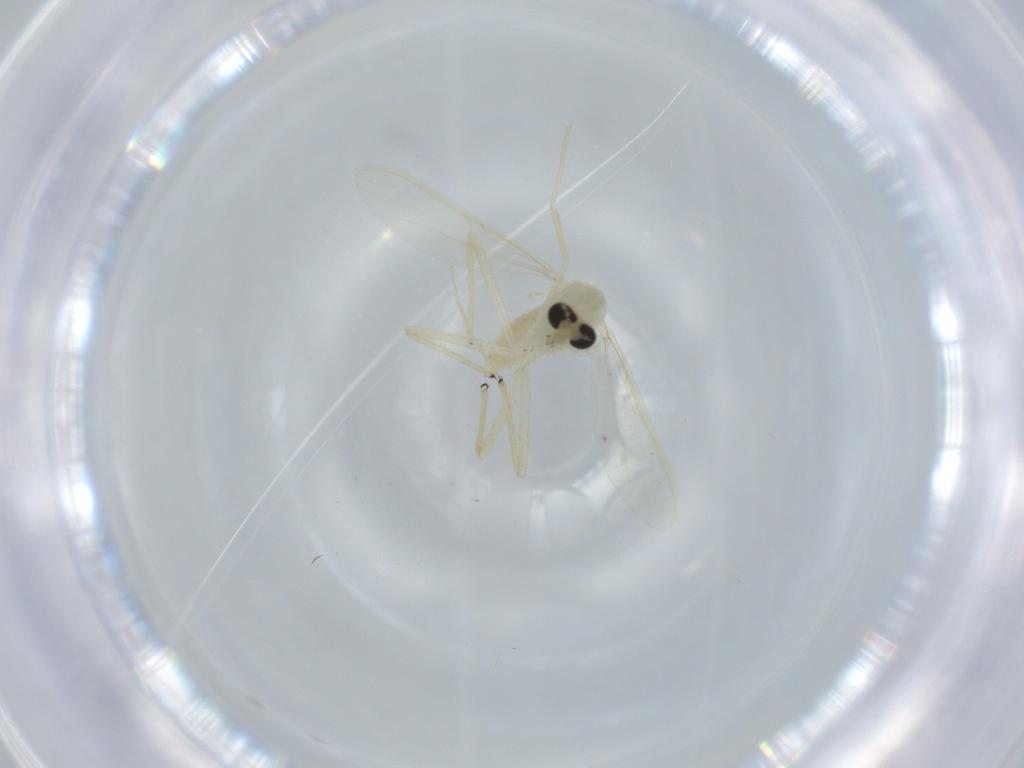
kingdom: Animalia
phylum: Arthropoda
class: Insecta
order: Diptera
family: Chironomidae
